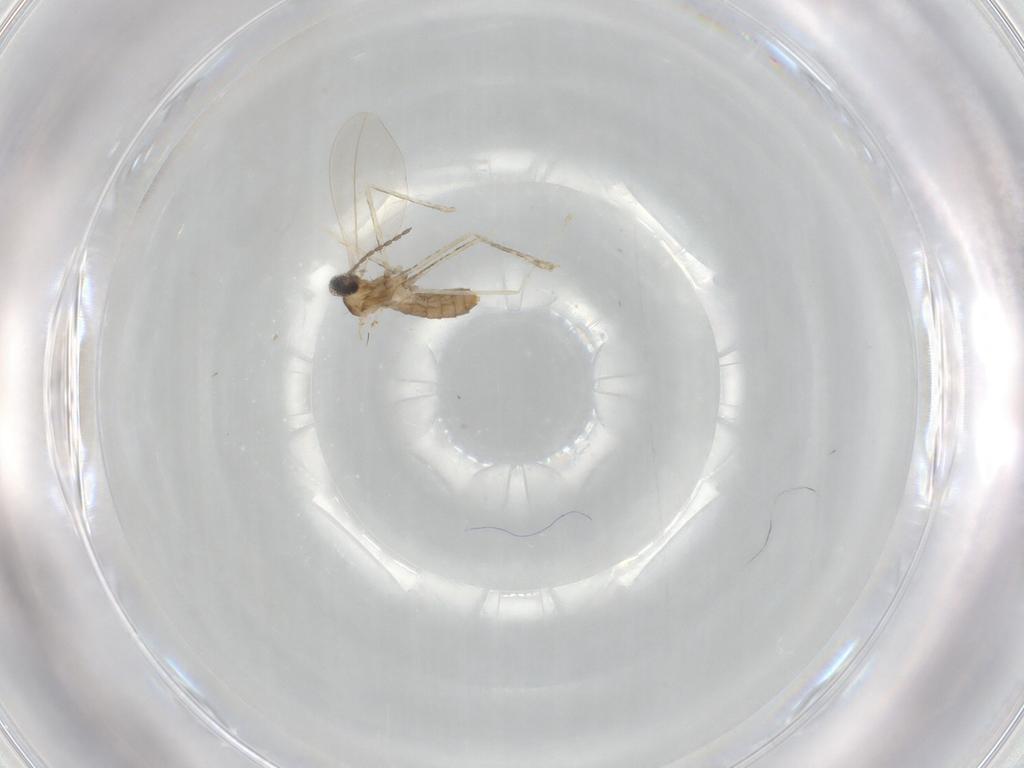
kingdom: Animalia
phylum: Arthropoda
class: Insecta
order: Diptera
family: Cecidomyiidae
